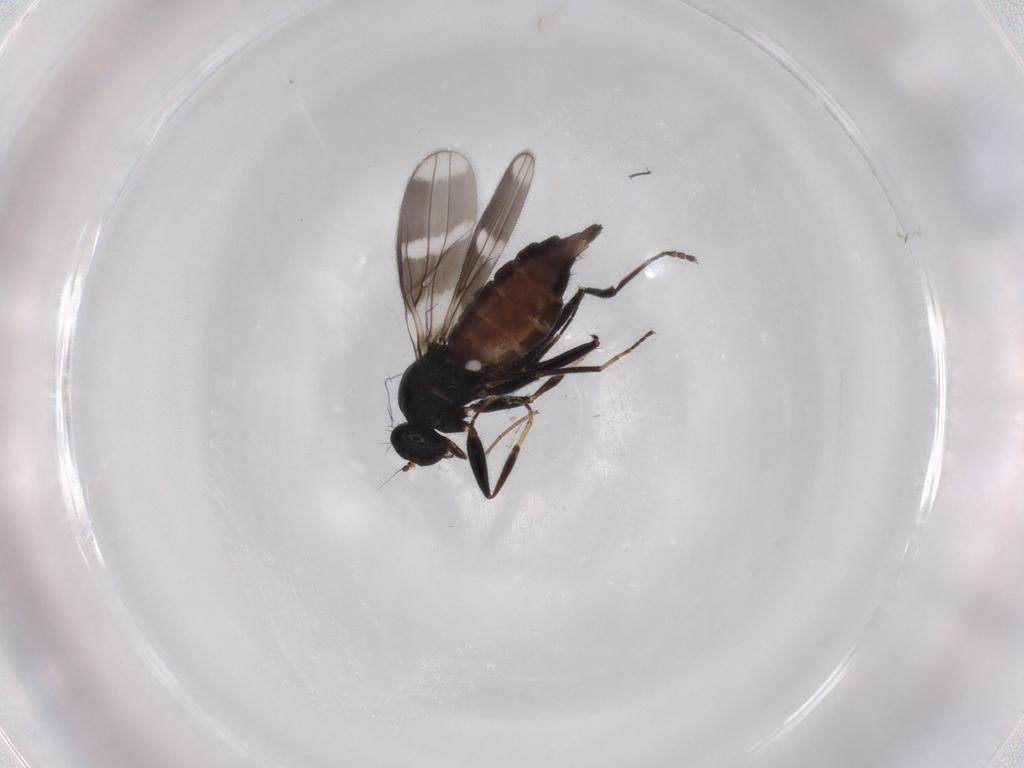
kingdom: Animalia
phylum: Arthropoda
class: Insecta
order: Diptera
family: Hybotidae
